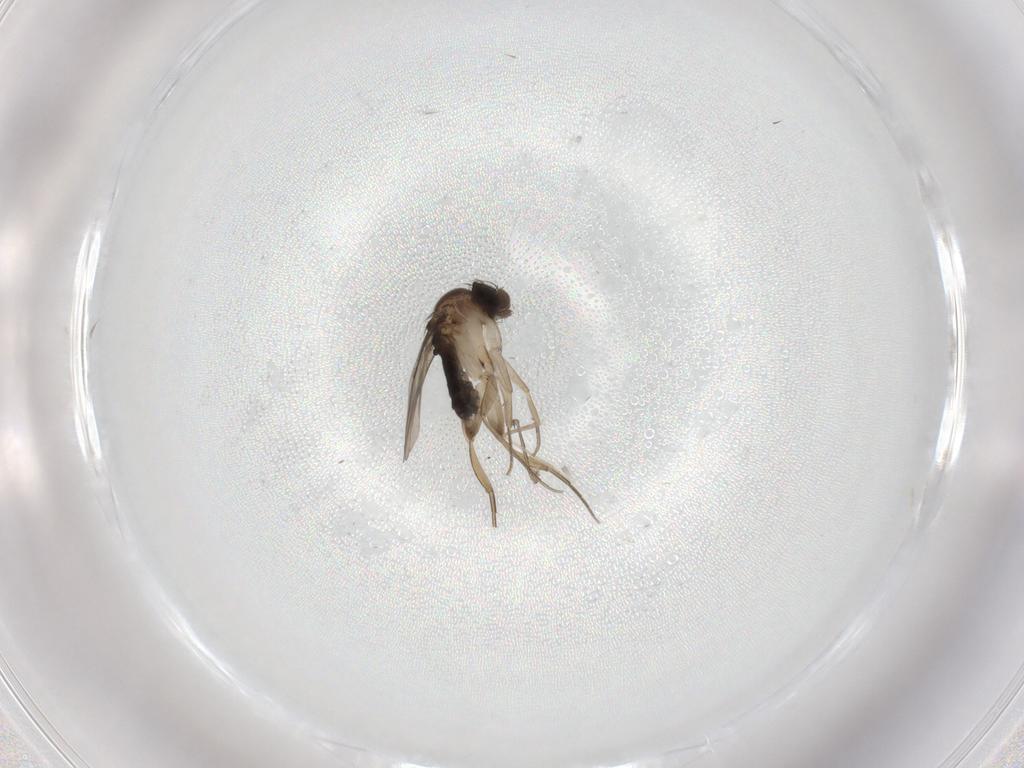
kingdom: Animalia
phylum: Arthropoda
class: Insecta
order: Diptera
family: Phoridae
